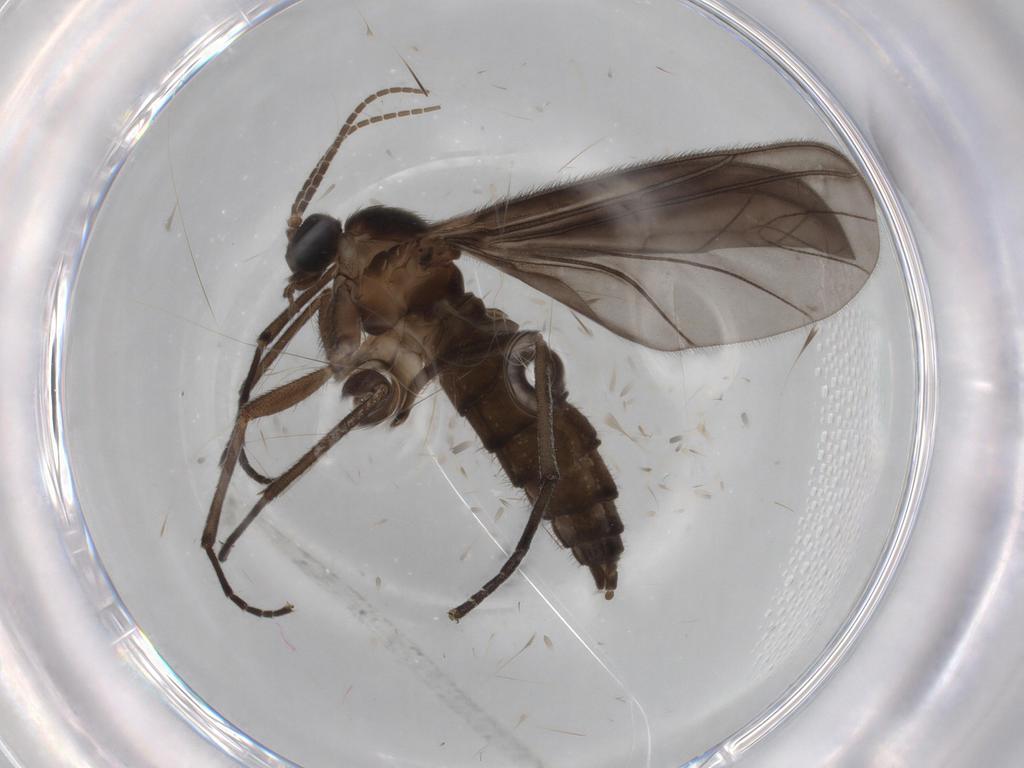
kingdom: Animalia
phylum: Arthropoda
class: Insecta
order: Diptera
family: Sciaridae
